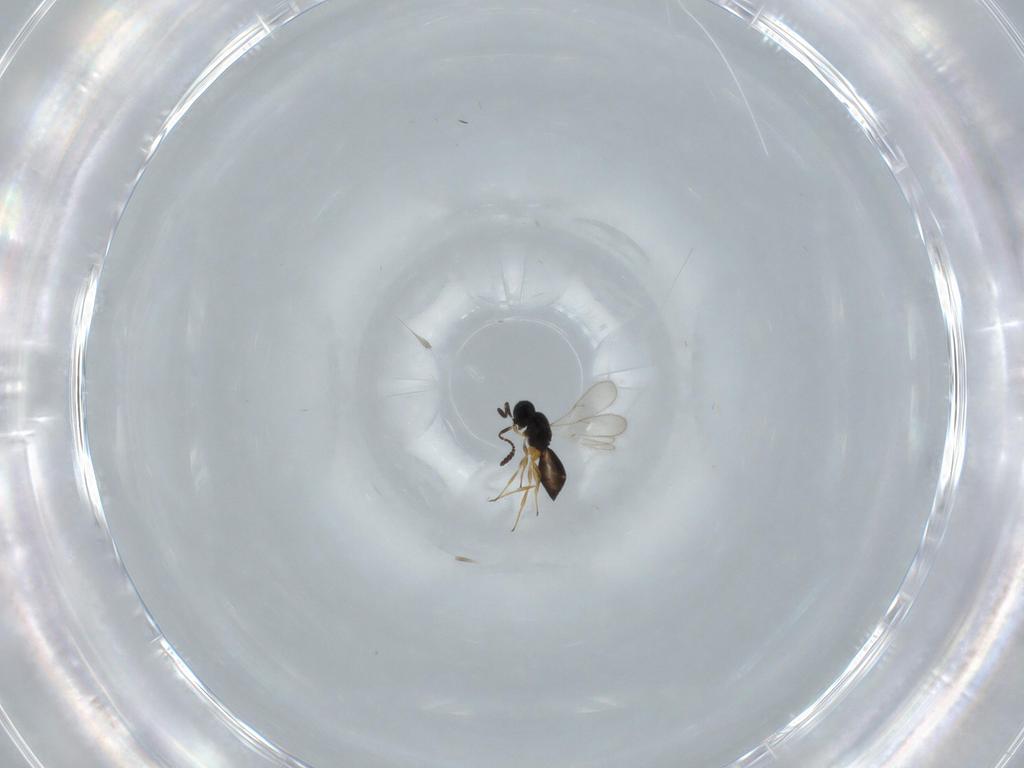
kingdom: Animalia
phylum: Arthropoda
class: Insecta
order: Hymenoptera
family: Scelionidae
